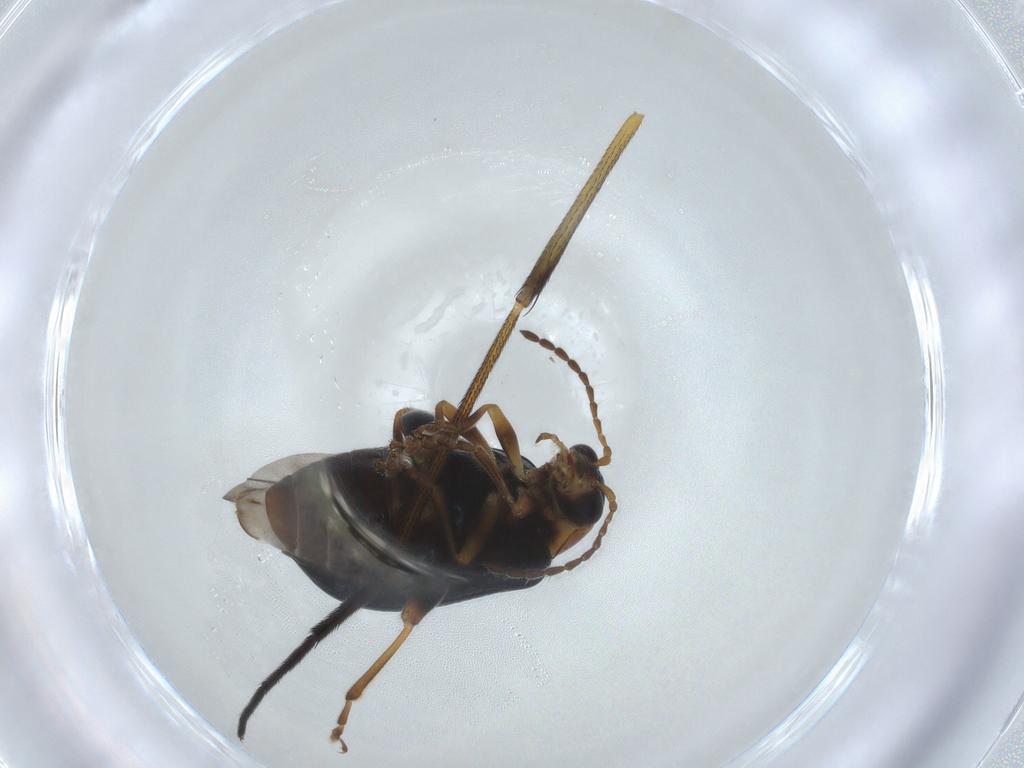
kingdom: Animalia
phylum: Arthropoda
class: Insecta
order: Coleoptera
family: Chrysomelidae
